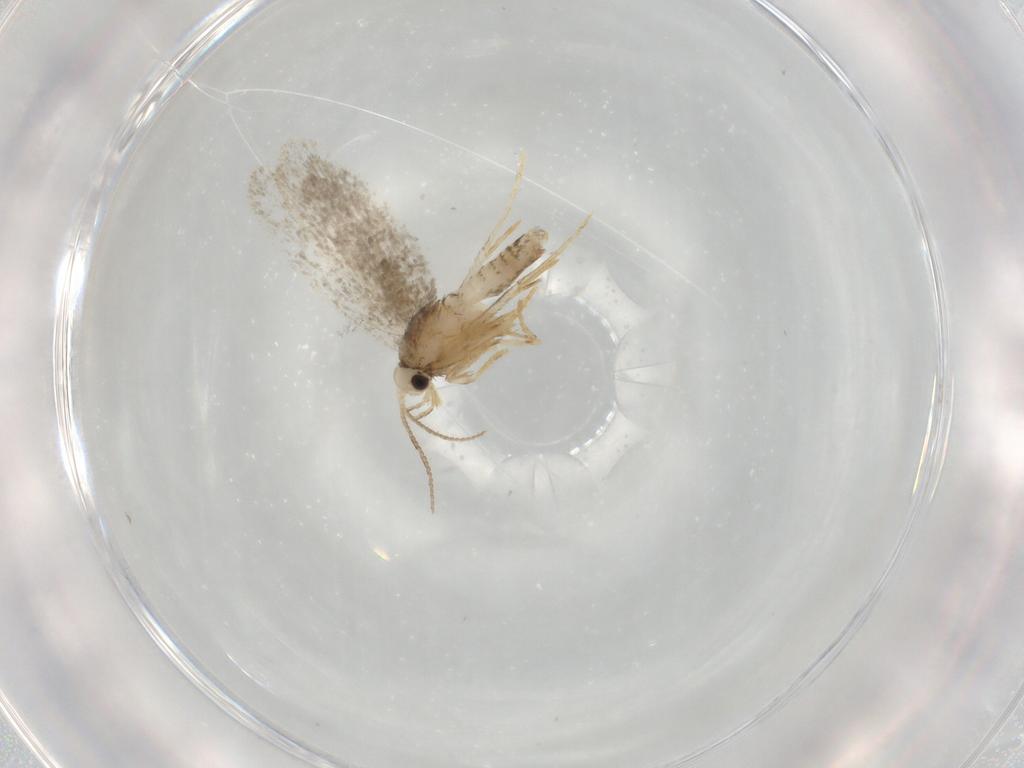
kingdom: Animalia
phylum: Arthropoda
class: Insecta
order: Lepidoptera
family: Psychidae
